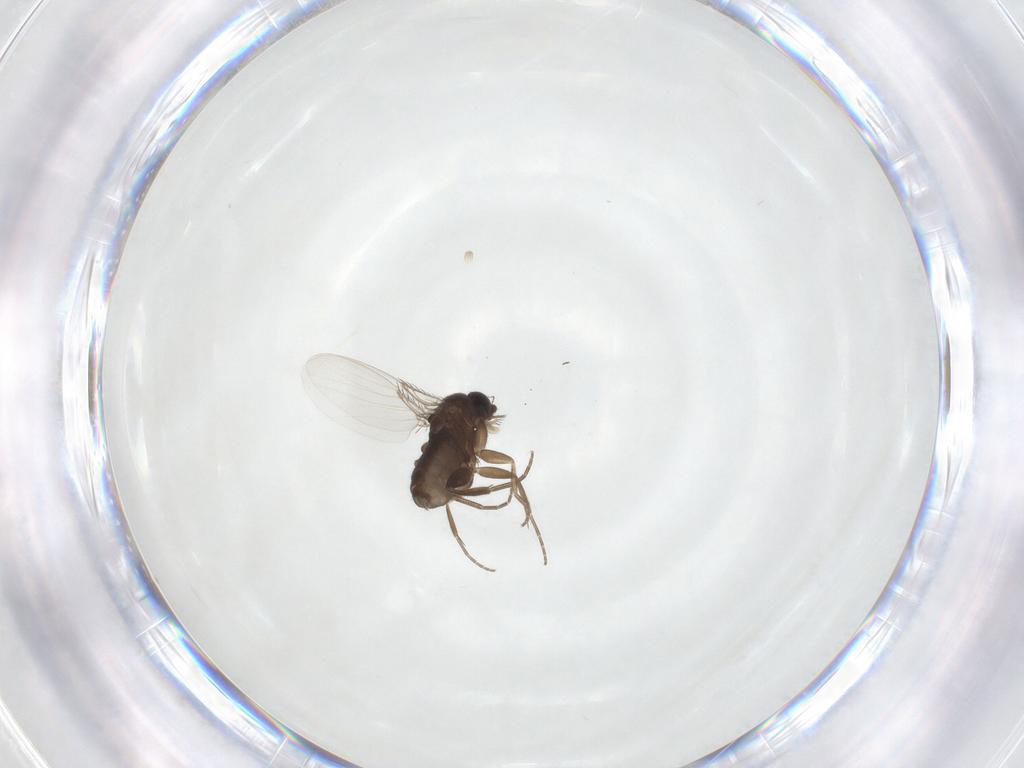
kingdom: Animalia
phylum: Arthropoda
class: Insecta
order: Diptera
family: Phoridae
